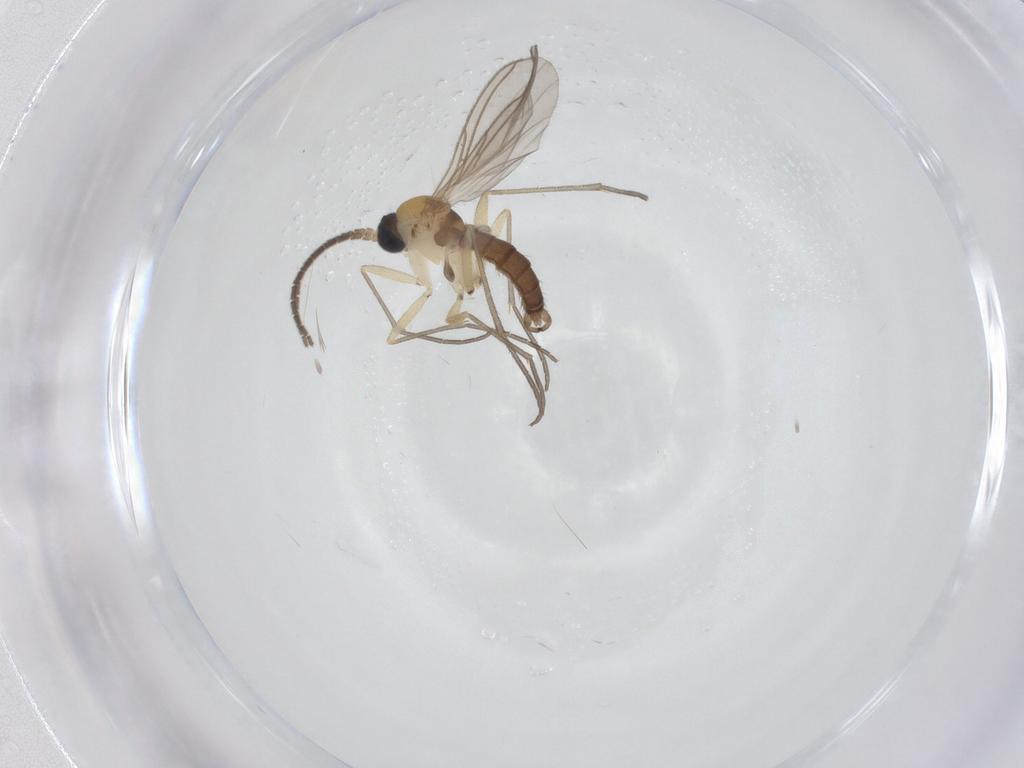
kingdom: Animalia
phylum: Arthropoda
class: Insecta
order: Diptera
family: Sciaridae
